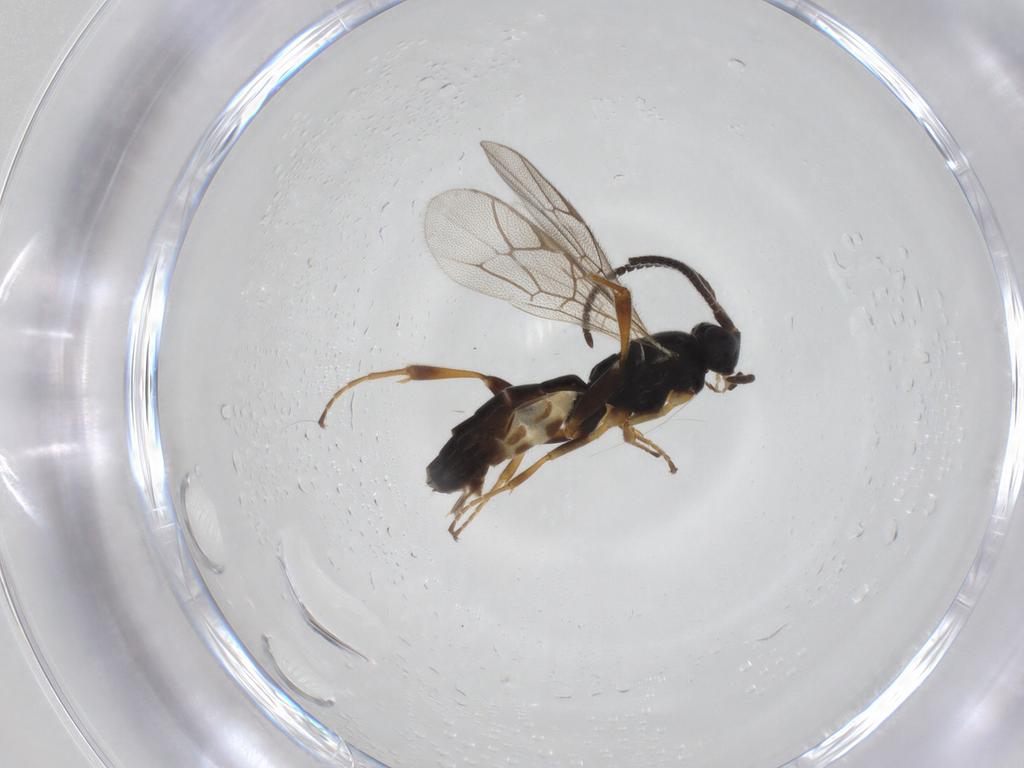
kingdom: Animalia
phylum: Arthropoda
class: Insecta
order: Hymenoptera
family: Ichneumonidae
